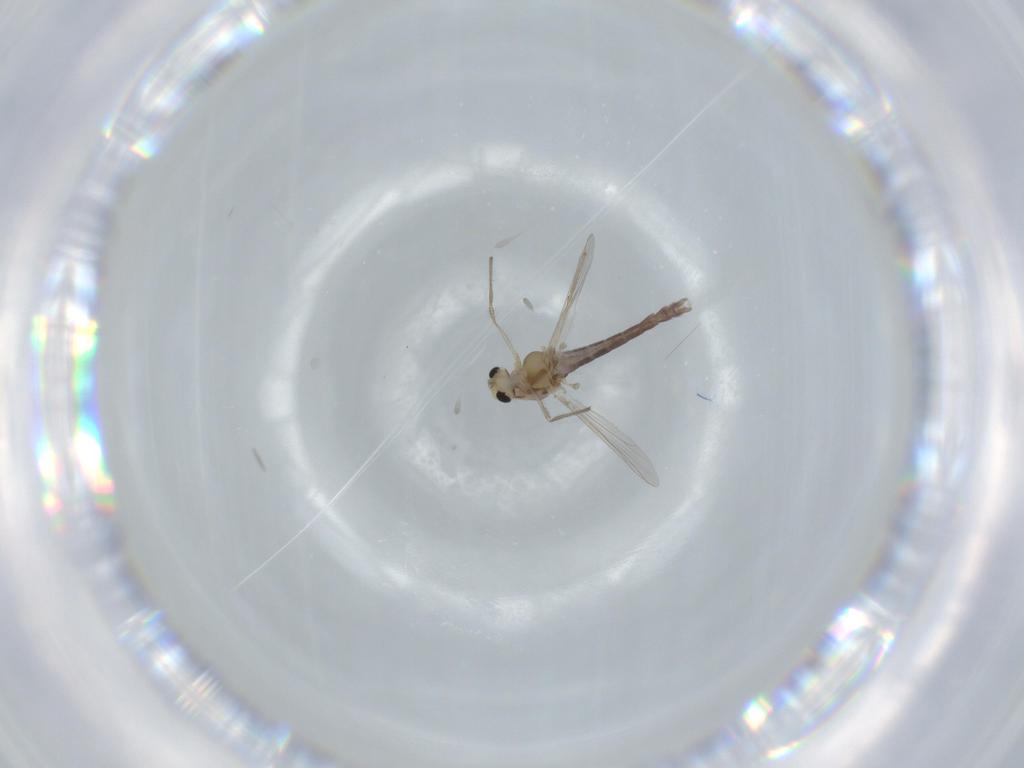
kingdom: Animalia
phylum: Arthropoda
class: Insecta
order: Diptera
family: Chironomidae
